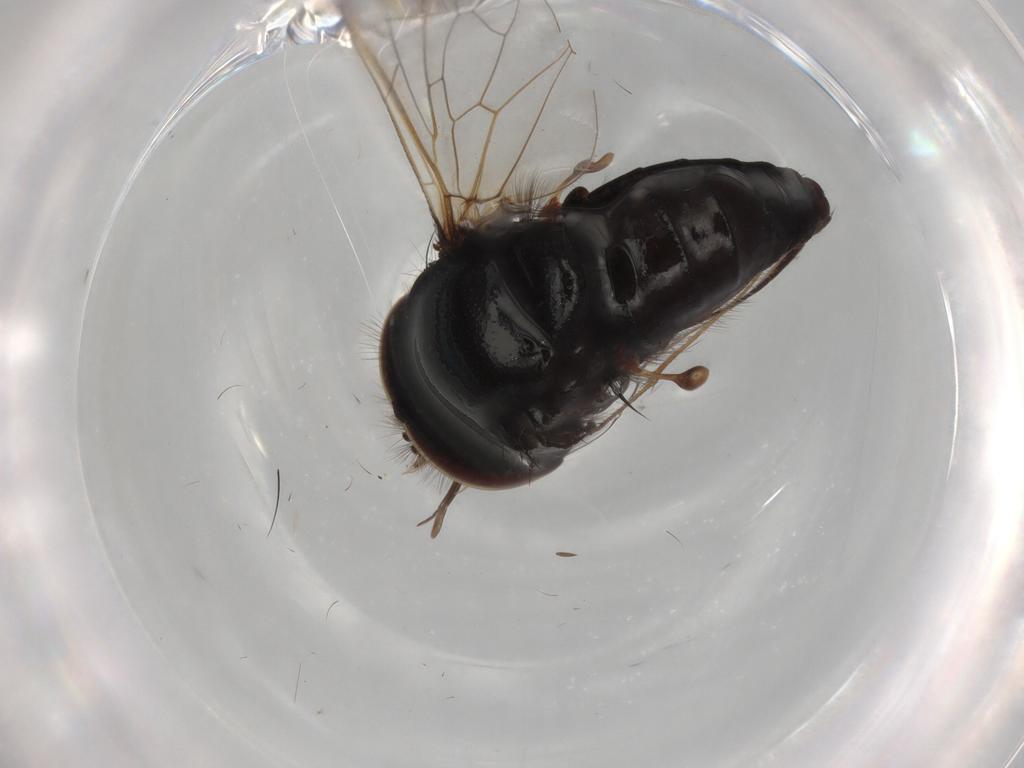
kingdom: Animalia
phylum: Arthropoda
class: Insecta
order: Diptera
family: Bombyliidae
